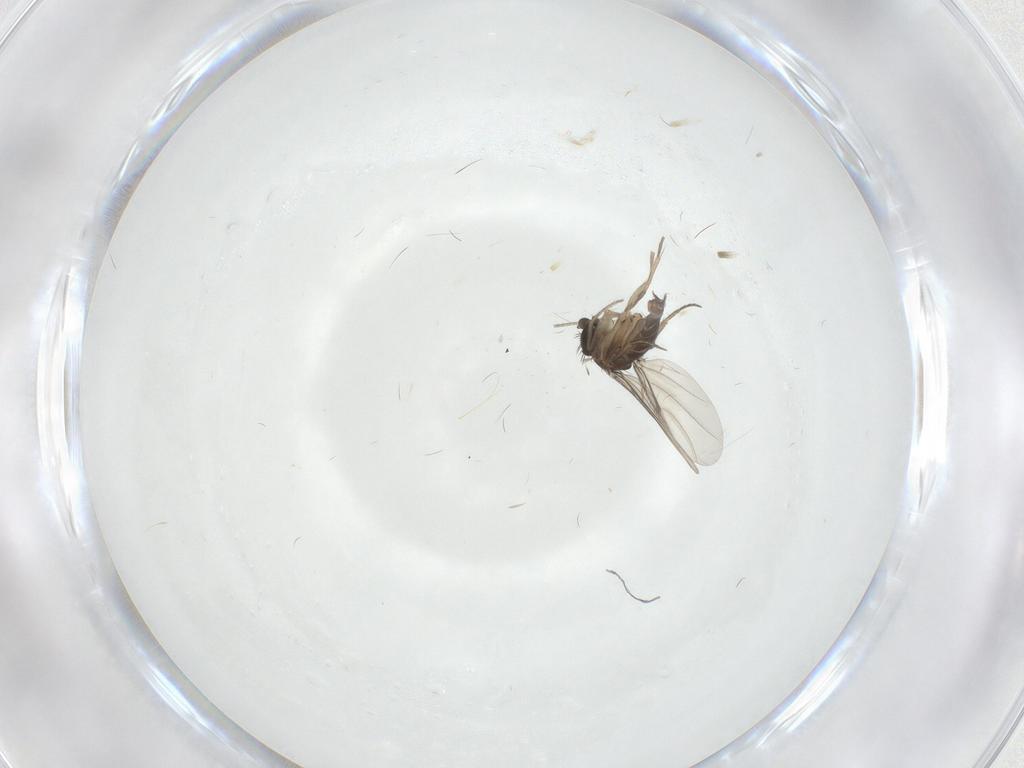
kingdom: Animalia
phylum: Arthropoda
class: Insecta
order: Diptera
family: Phoridae
